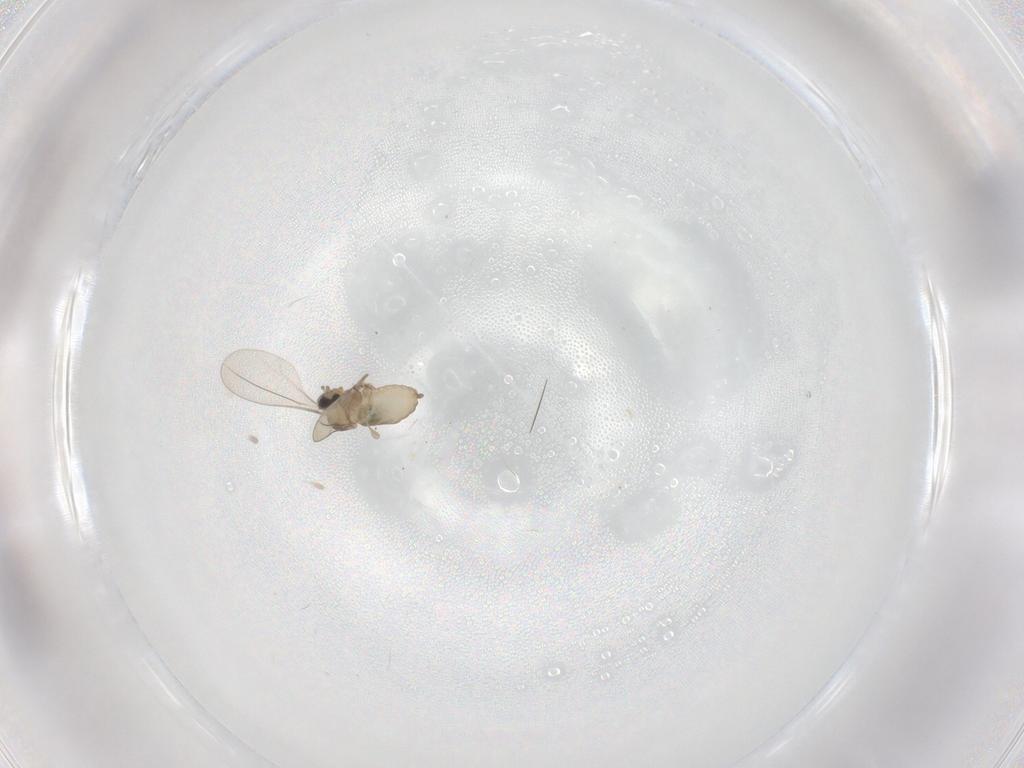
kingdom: Animalia
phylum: Arthropoda
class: Insecta
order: Diptera
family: Cecidomyiidae
